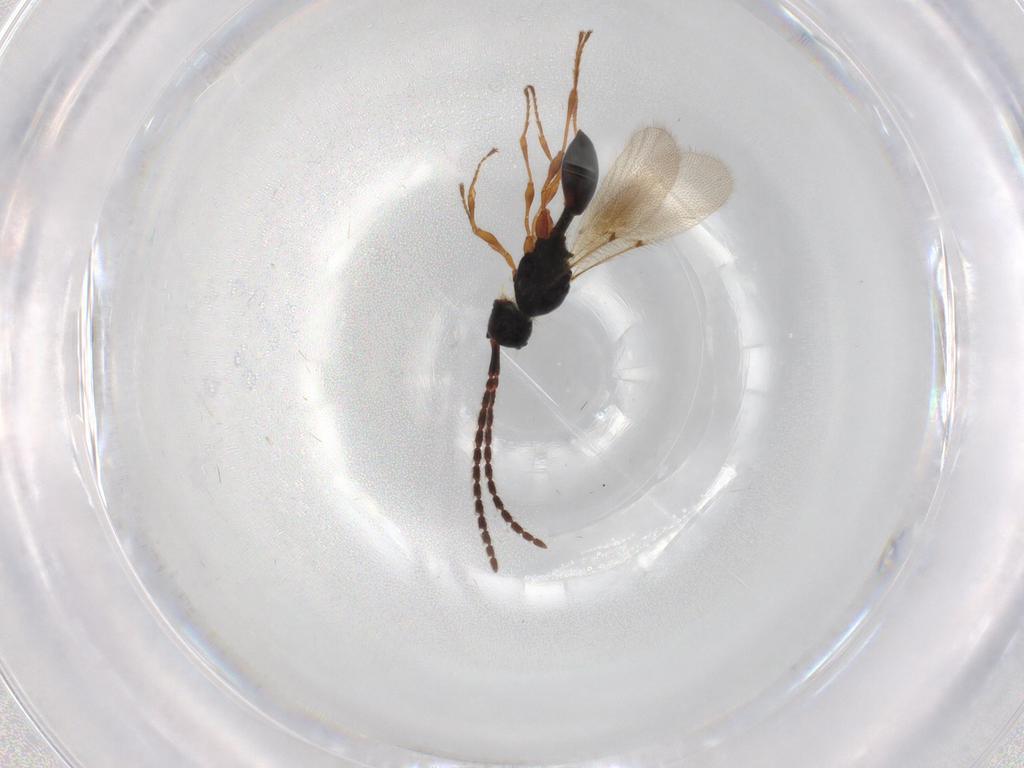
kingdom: Animalia
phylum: Arthropoda
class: Insecta
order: Hymenoptera
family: Diapriidae
